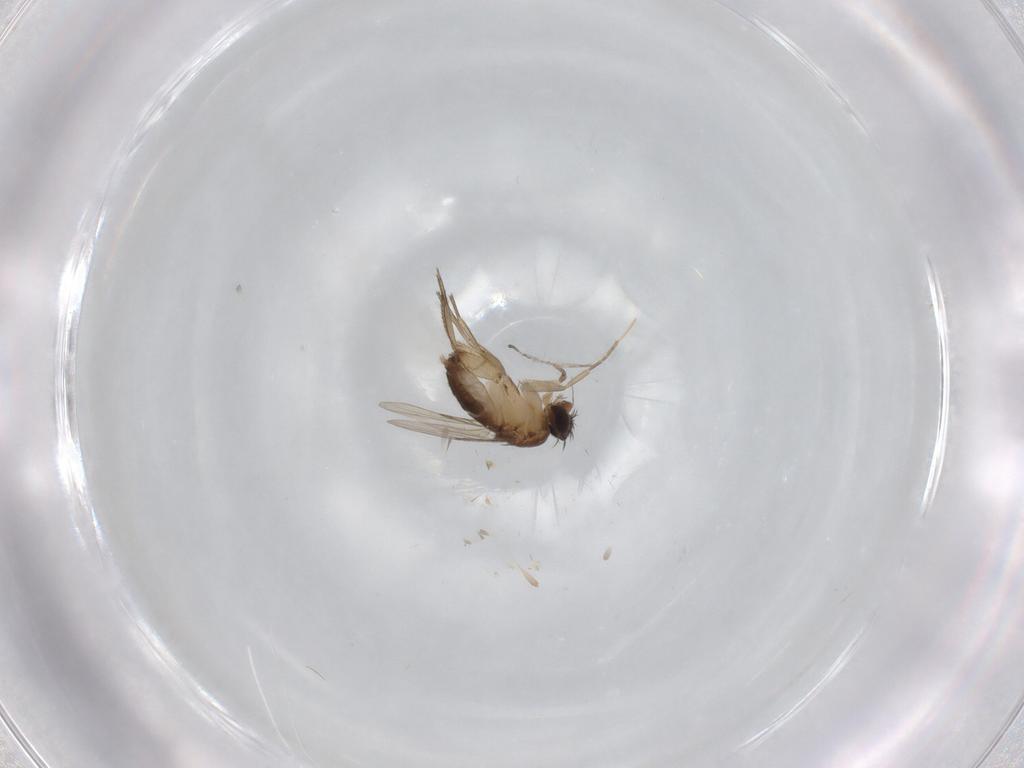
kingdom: Animalia
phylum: Arthropoda
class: Insecta
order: Diptera
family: Phoridae
